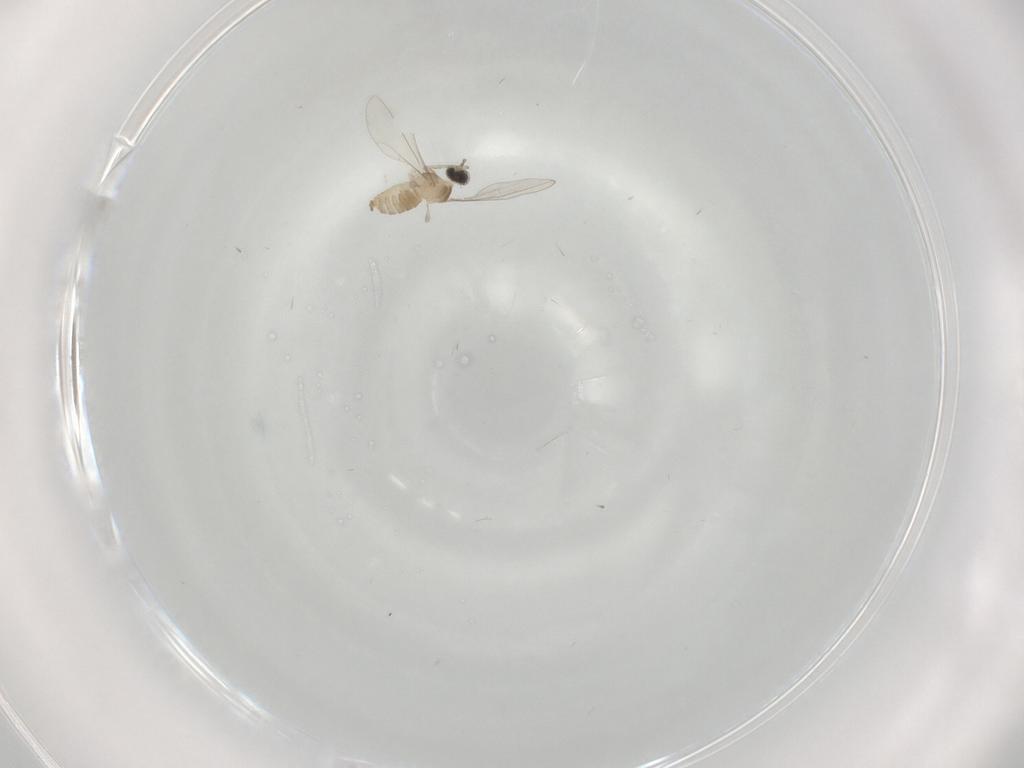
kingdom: Animalia
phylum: Arthropoda
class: Insecta
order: Diptera
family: Cecidomyiidae
